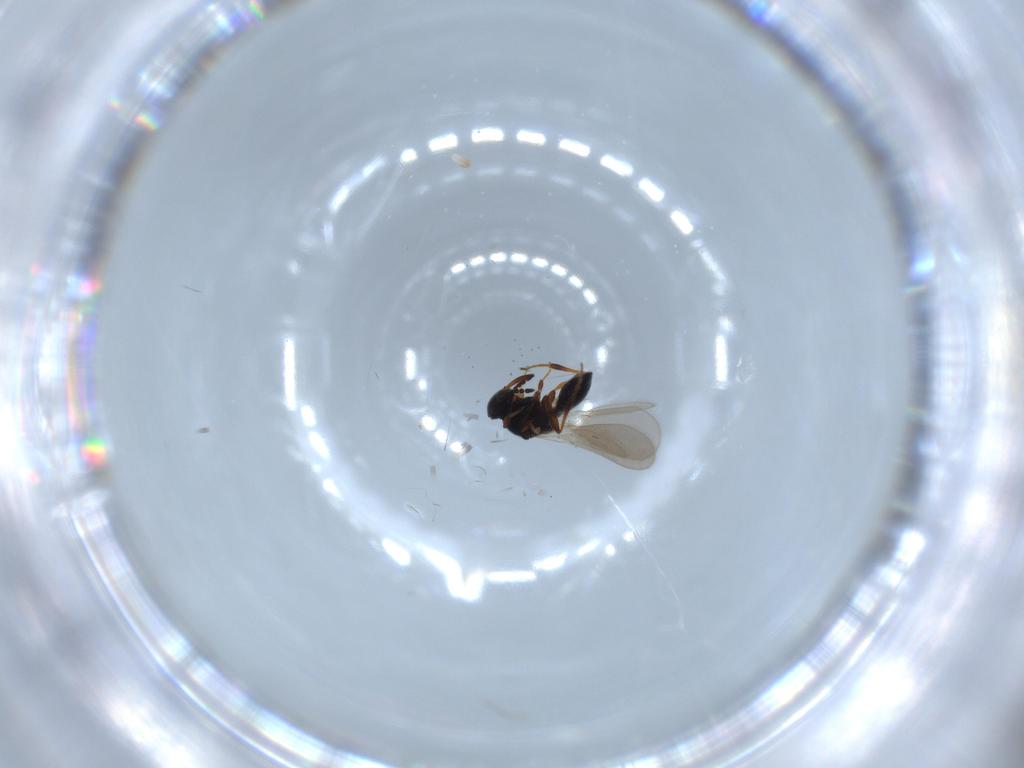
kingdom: Animalia
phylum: Arthropoda
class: Insecta
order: Hymenoptera
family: Platygastridae
